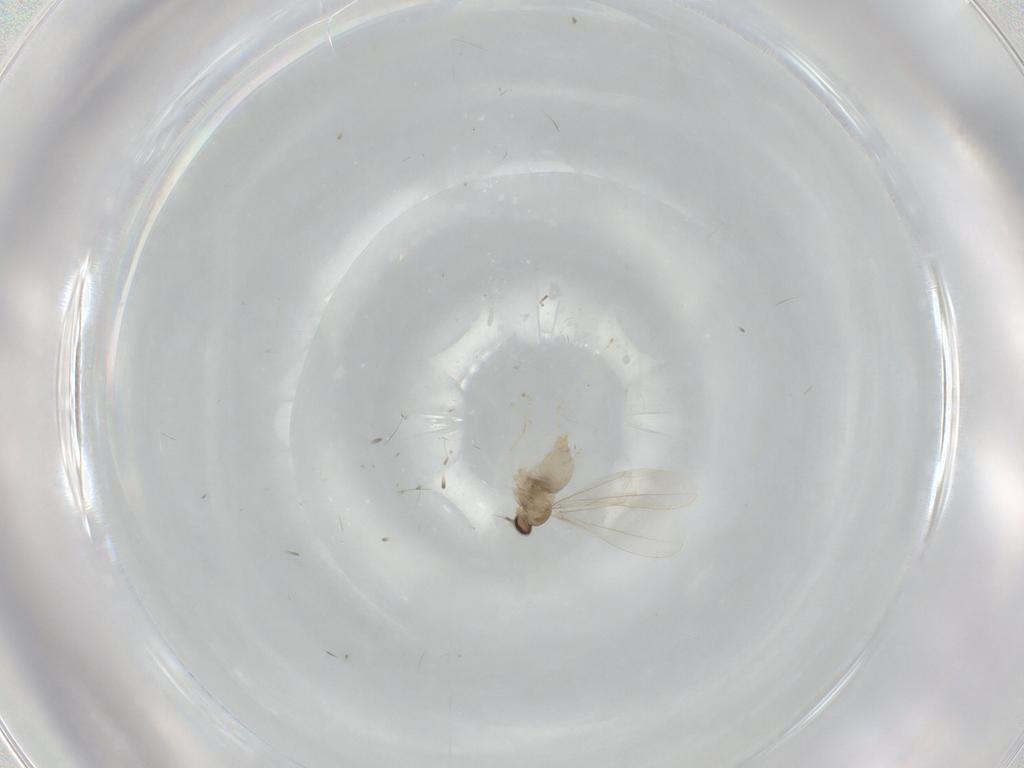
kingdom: Animalia
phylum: Arthropoda
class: Insecta
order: Diptera
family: Cecidomyiidae
